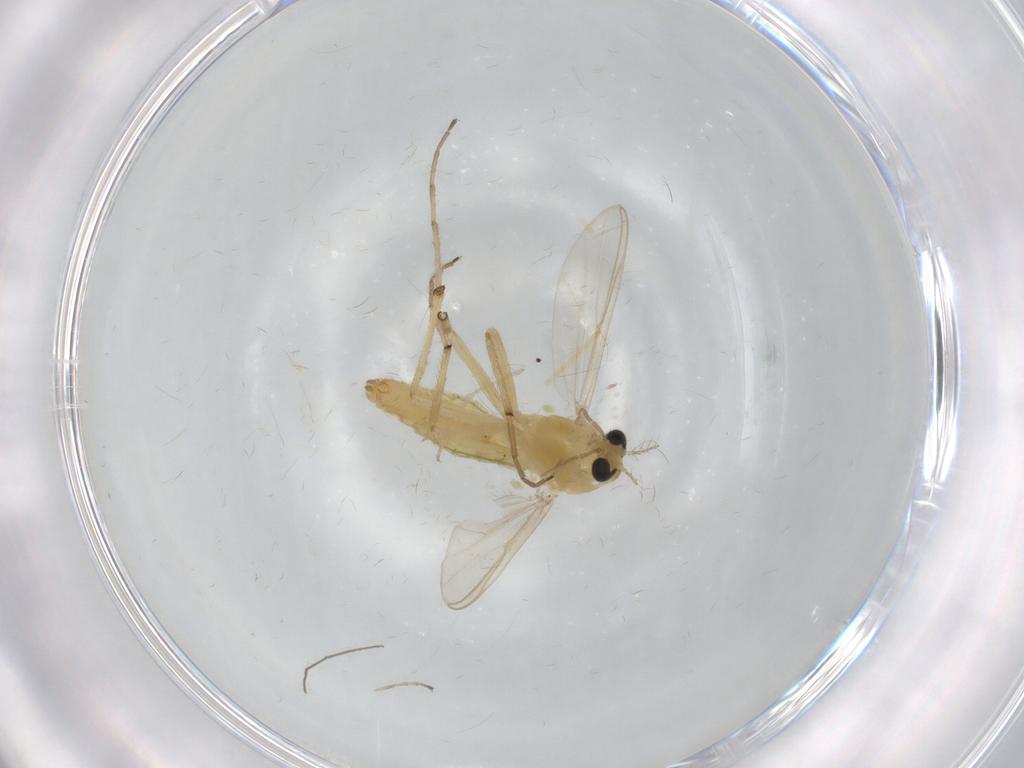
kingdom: Animalia
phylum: Arthropoda
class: Insecta
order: Diptera
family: Chironomidae
